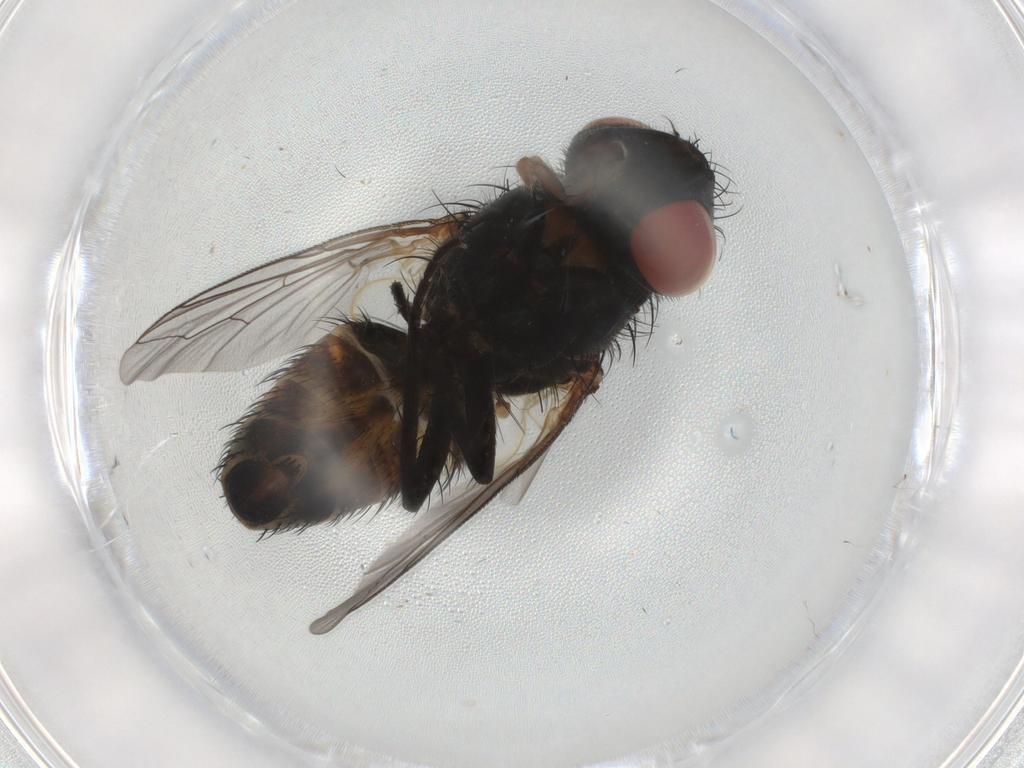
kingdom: Animalia
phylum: Arthropoda
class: Insecta
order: Diptera
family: Sarcophagidae
